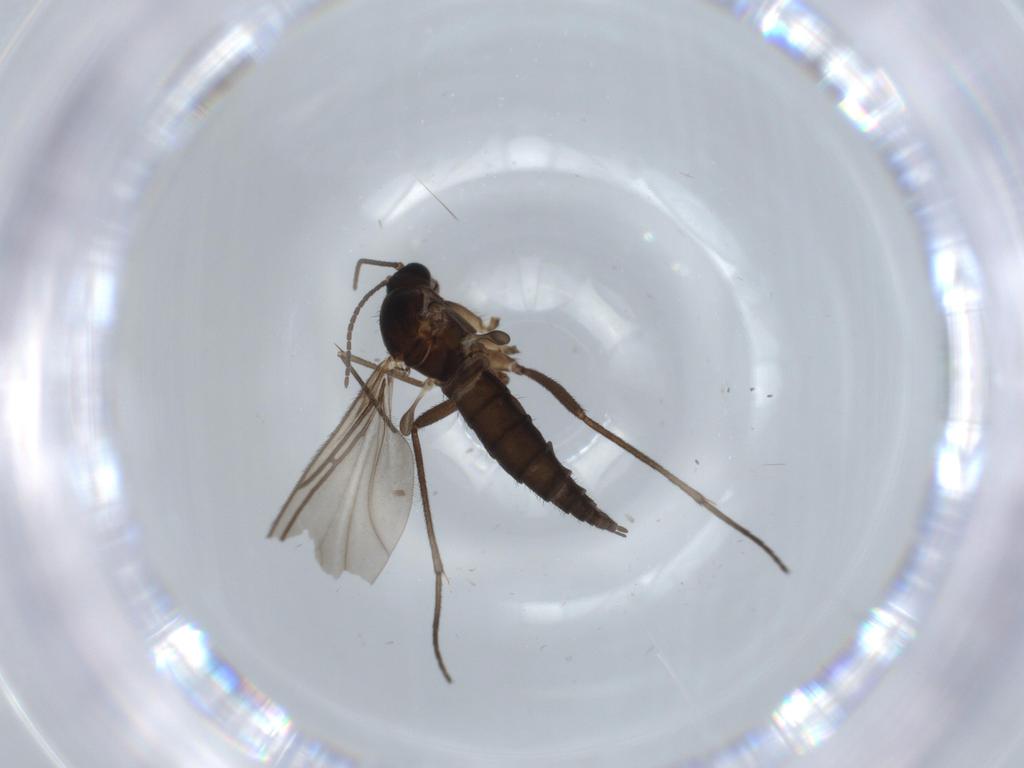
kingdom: Animalia
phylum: Arthropoda
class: Insecta
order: Diptera
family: Sciaridae
